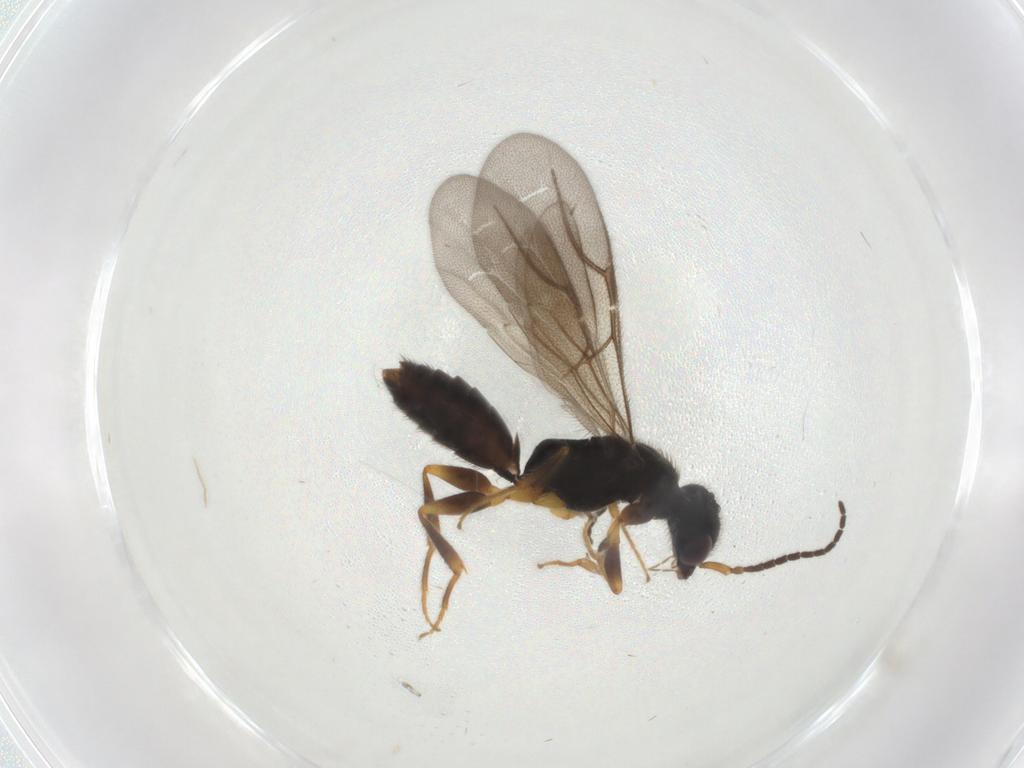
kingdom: Animalia
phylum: Arthropoda
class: Insecta
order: Hymenoptera
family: Bethylidae
